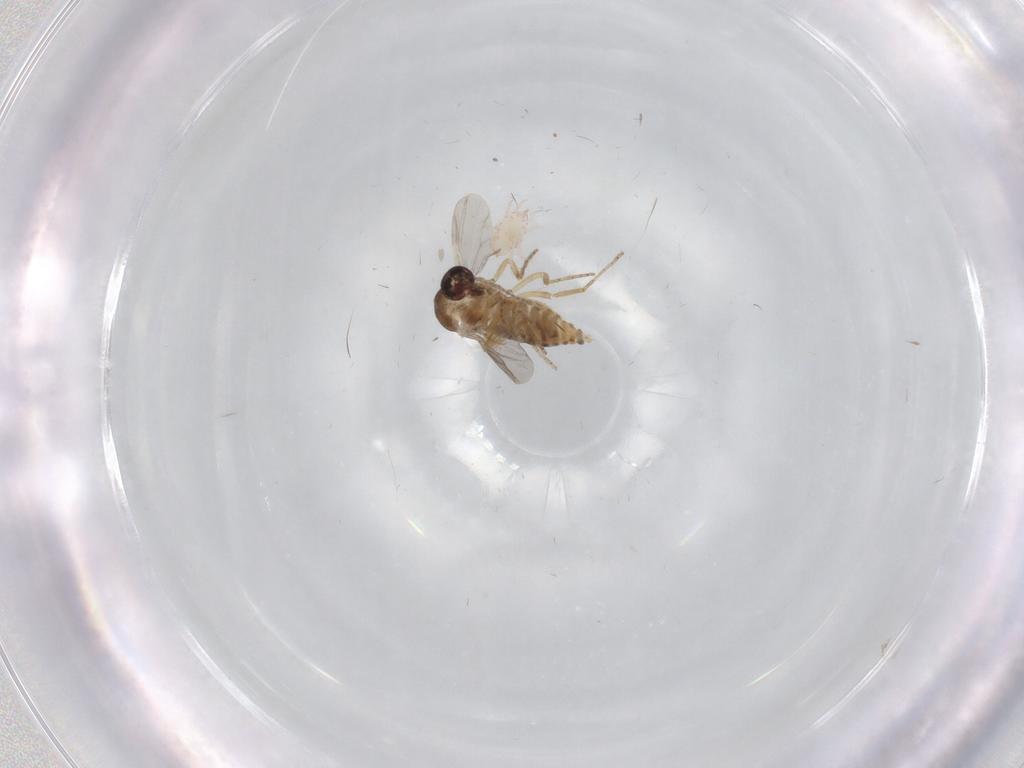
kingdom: Animalia
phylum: Arthropoda
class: Insecta
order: Diptera
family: Ceratopogonidae
